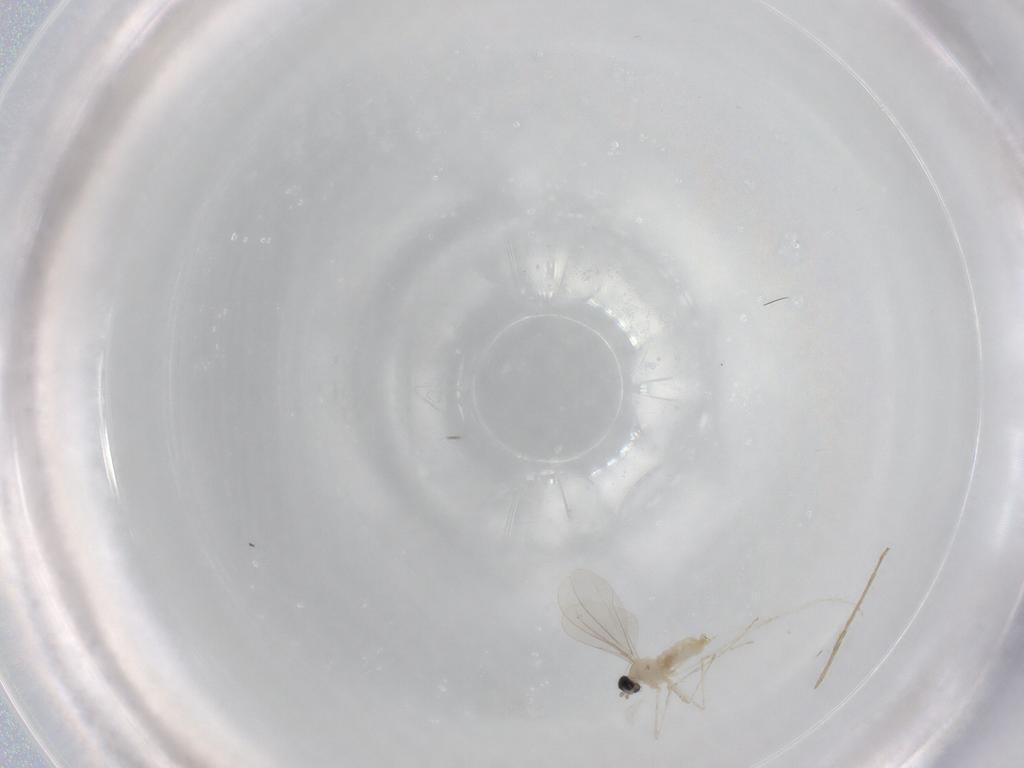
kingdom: Animalia
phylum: Arthropoda
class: Insecta
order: Diptera
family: Cecidomyiidae
